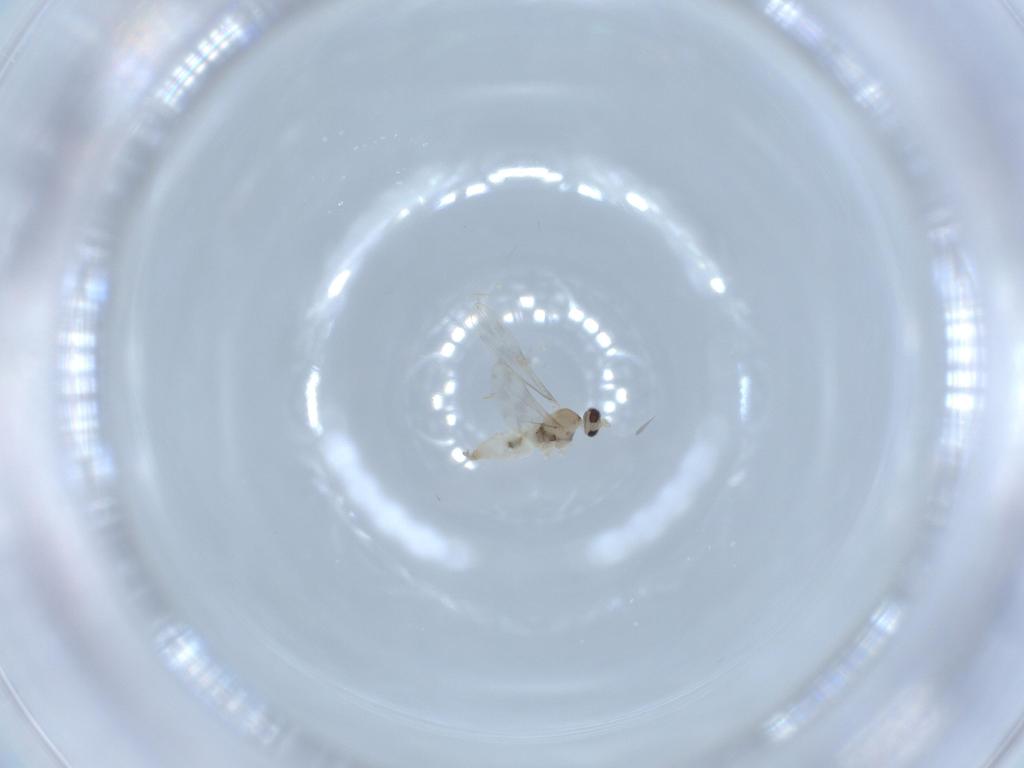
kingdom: Animalia
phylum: Arthropoda
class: Insecta
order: Diptera
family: Cecidomyiidae
